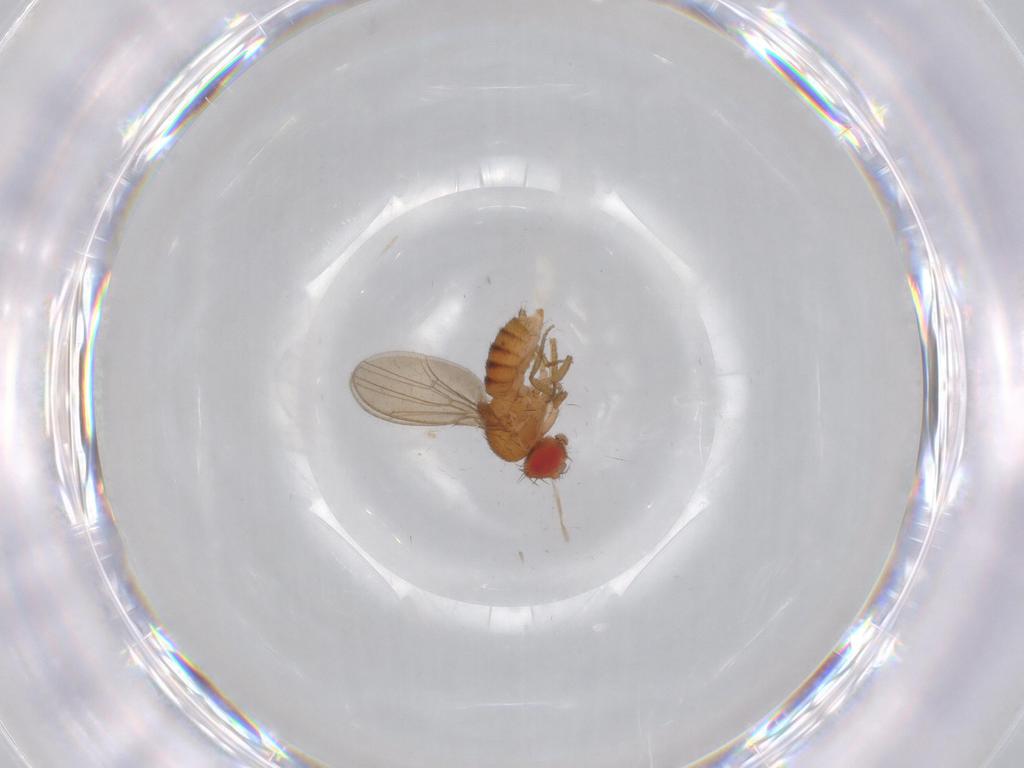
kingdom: Animalia
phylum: Arthropoda
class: Insecta
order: Diptera
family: Drosophilidae
